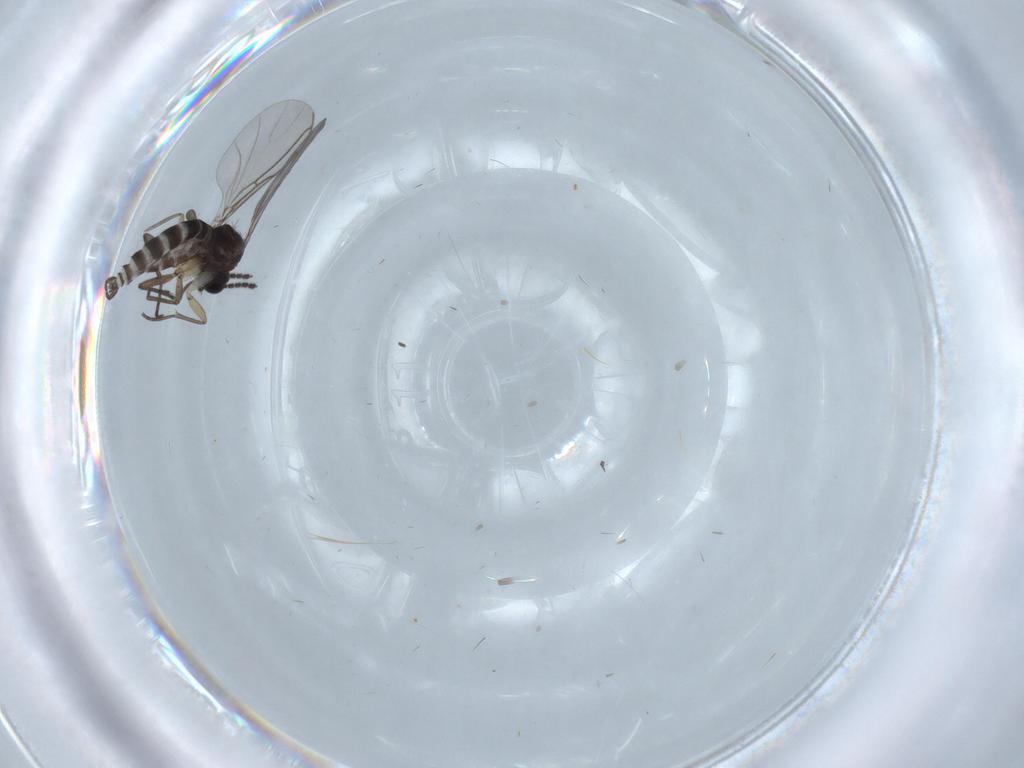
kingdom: Animalia
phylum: Arthropoda
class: Insecta
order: Diptera
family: Sciaridae
